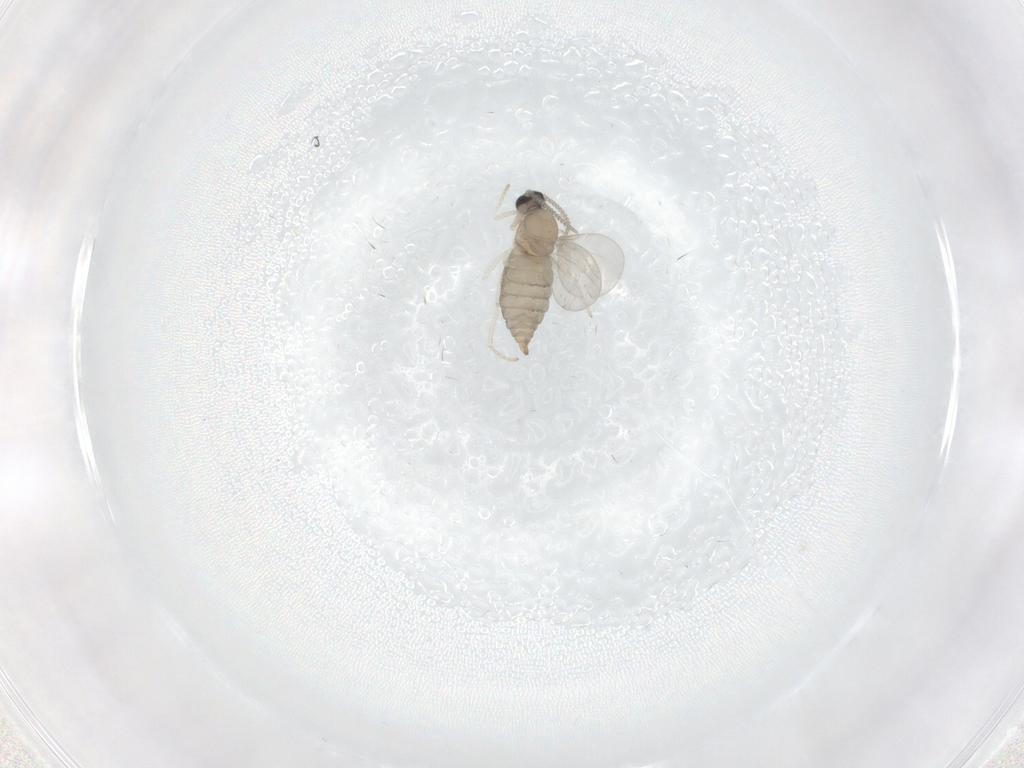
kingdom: Animalia
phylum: Arthropoda
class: Insecta
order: Diptera
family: Cecidomyiidae
